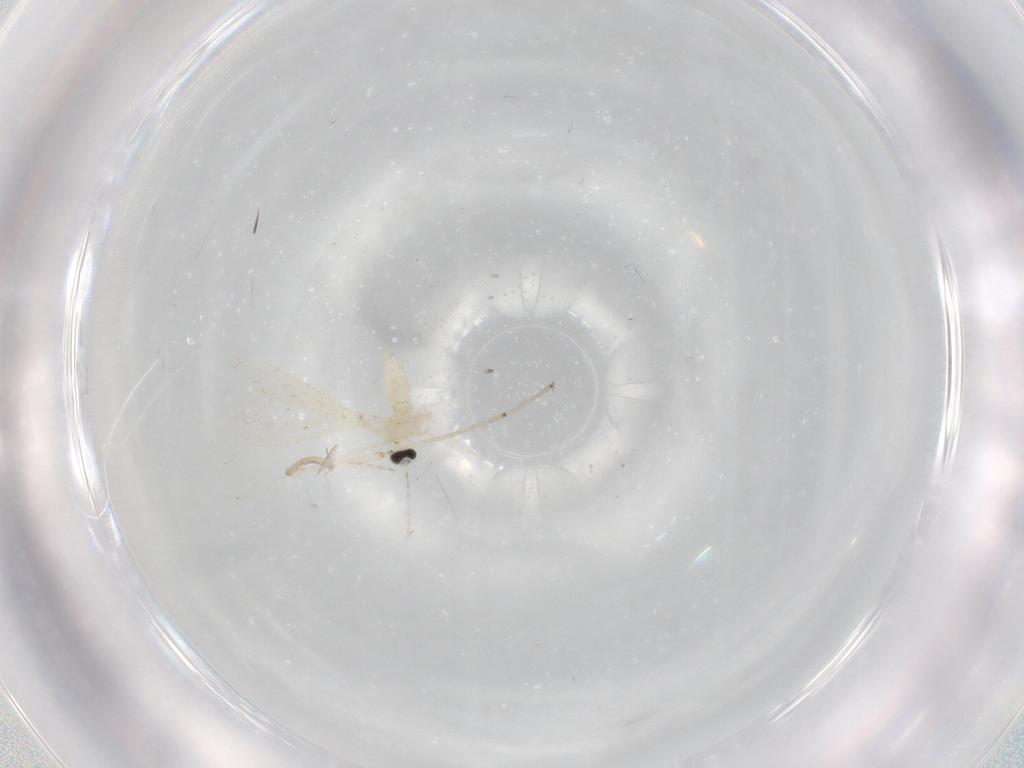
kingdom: Animalia
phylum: Arthropoda
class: Insecta
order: Diptera
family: Cecidomyiidae
